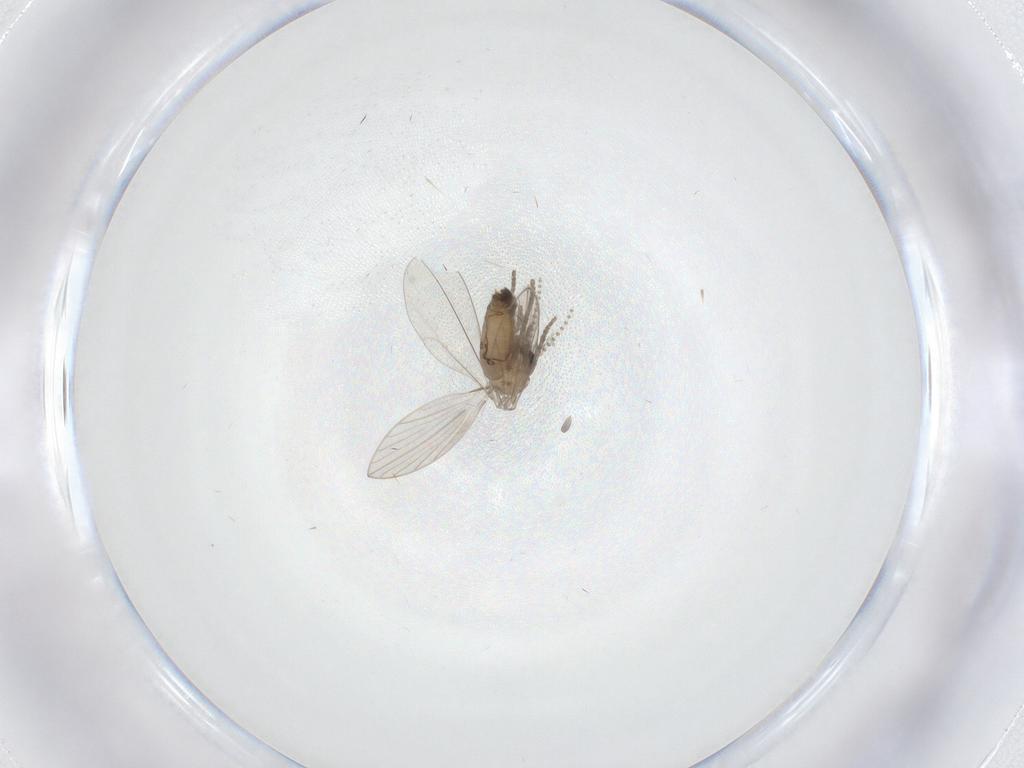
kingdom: Animalia
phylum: Arthropoda
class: Insecta
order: Diptera
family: Psychodidae
